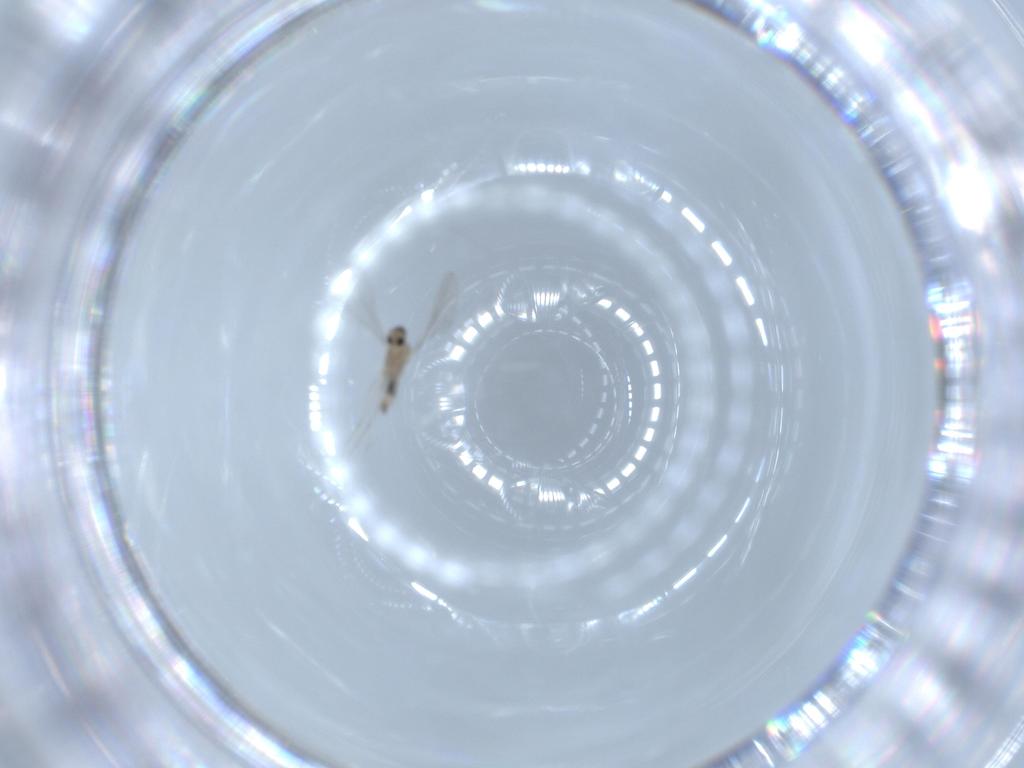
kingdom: Animalia
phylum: Arthropoda
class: Insecta
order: Diptera
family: Cecidomyiidae
